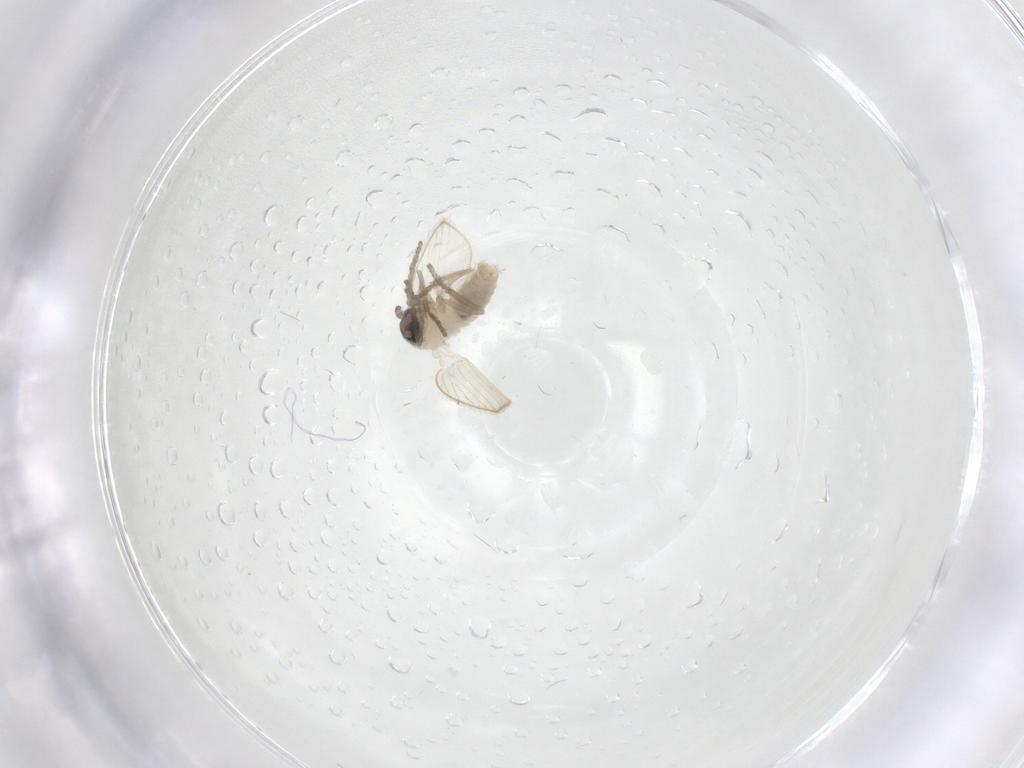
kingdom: Animalia
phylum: Arthropoda
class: Insecta
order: Diptera
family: Psychodidae
